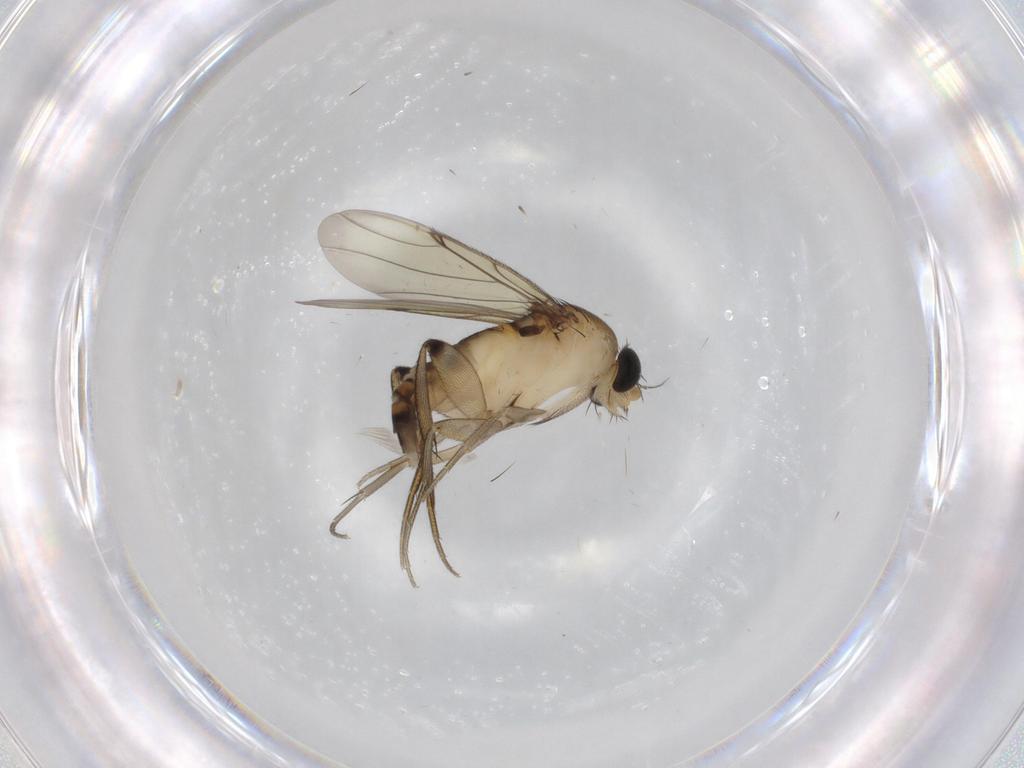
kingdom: Animalia
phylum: Arthropoda
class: Insecta
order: Diptera
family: Phoridae
